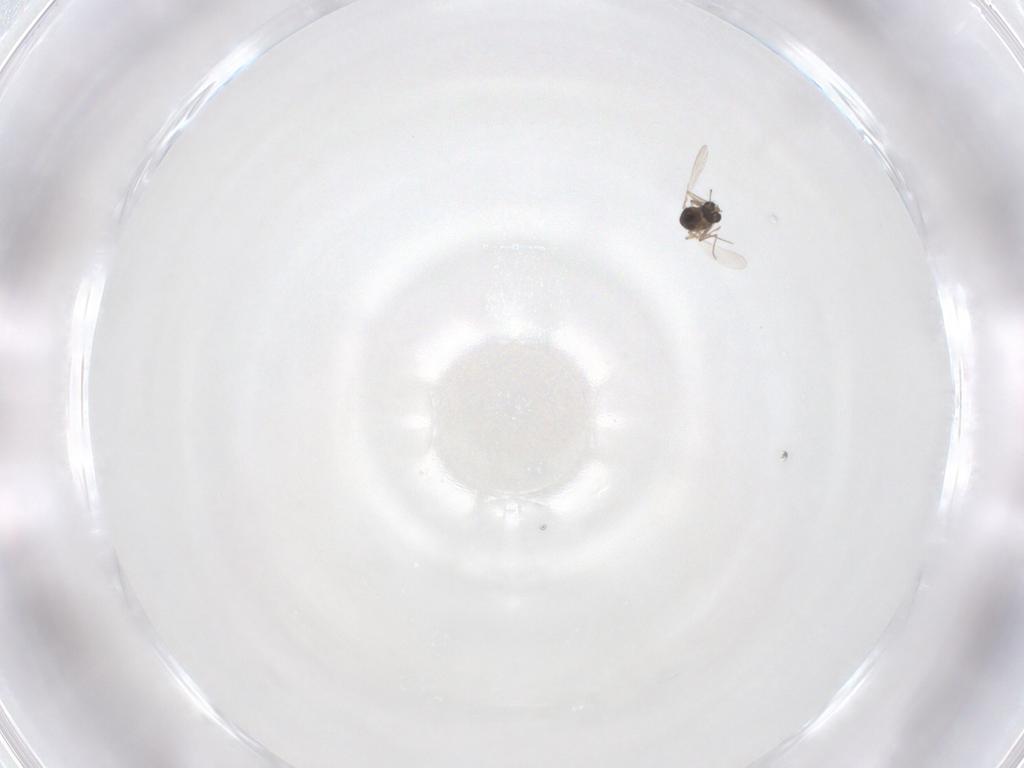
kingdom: Animalia
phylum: Arthropoda
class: Insecta
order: Diptera
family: Chironomidae
